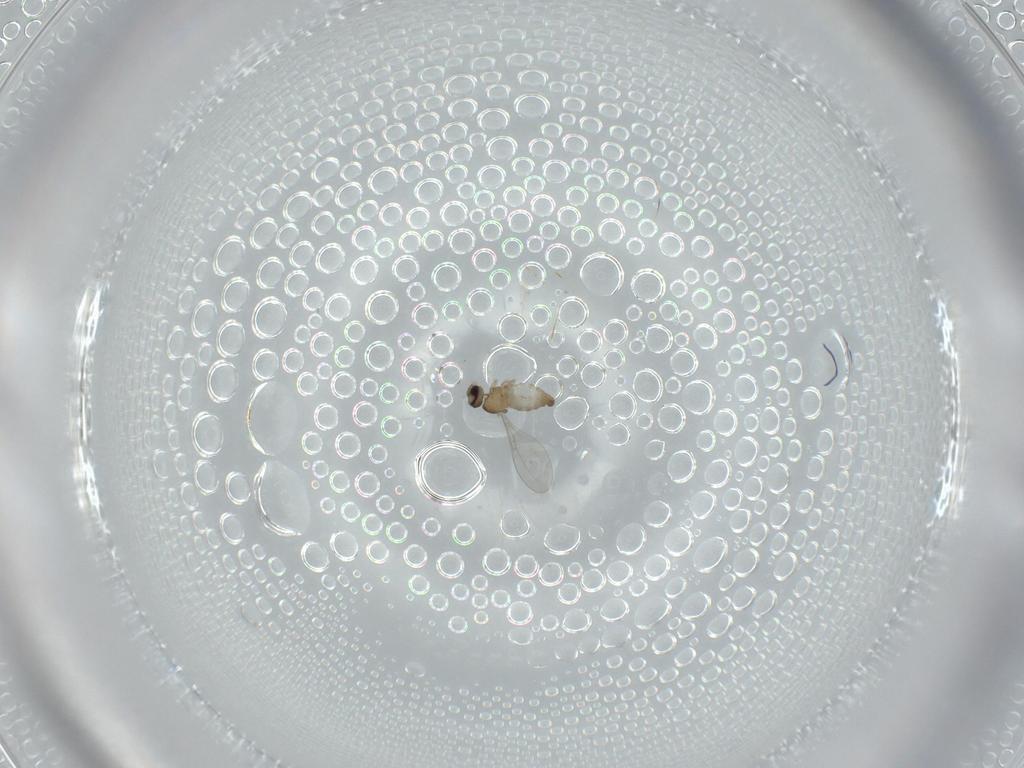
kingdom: Animalia
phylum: Arthropoda
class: Insecta
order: Diptera
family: Cecidomyiidae
